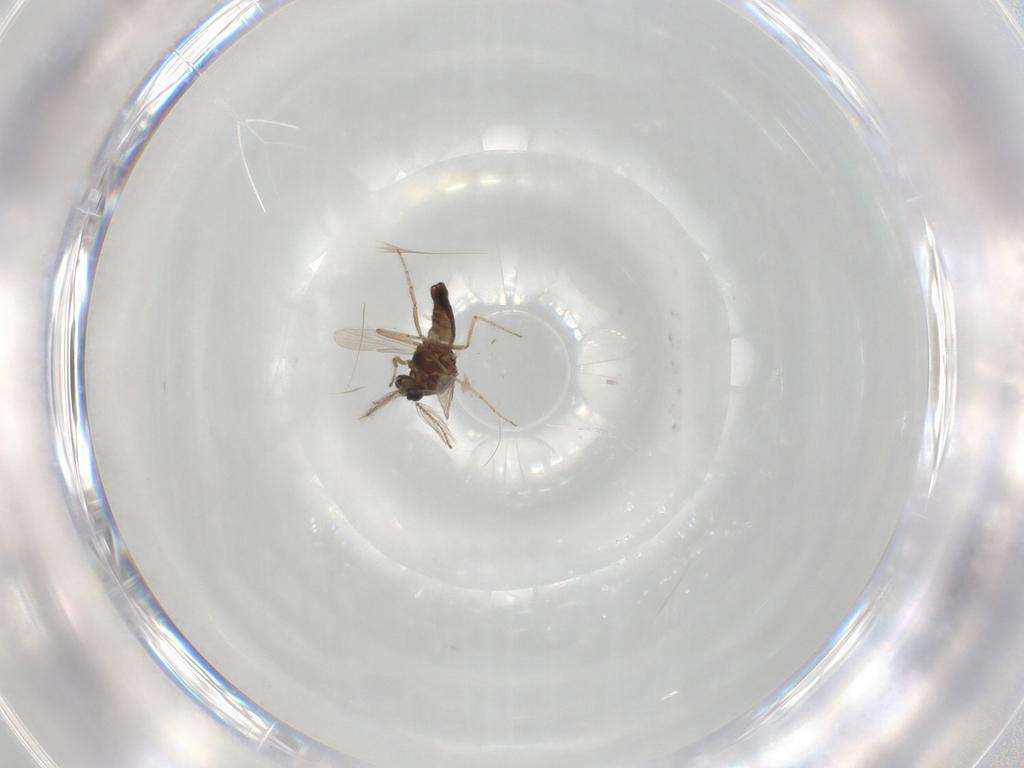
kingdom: Animalia
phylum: Arthropoda
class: Insecta
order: Diptera
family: Ceratopogonidae
